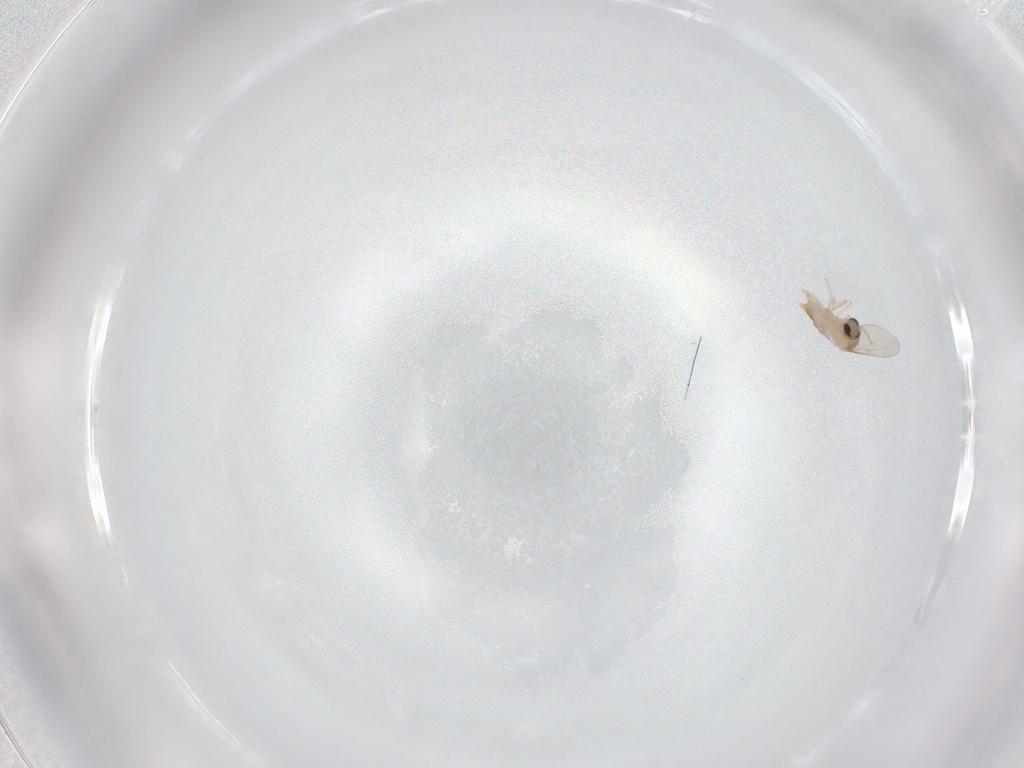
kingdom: Animalia
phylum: Arthropoda
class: Insecta
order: Diptera
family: Cecidomyiidae
